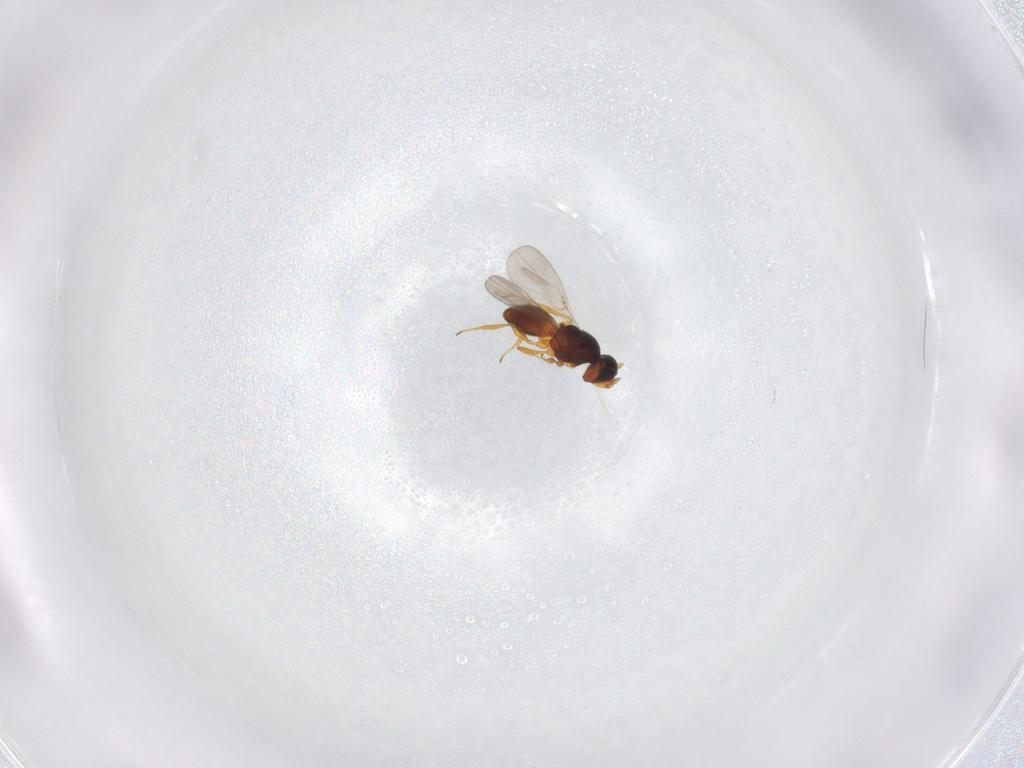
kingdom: Animalia
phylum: Arthropoda
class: Insecta
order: Hymenoptera
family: Platygastridae
